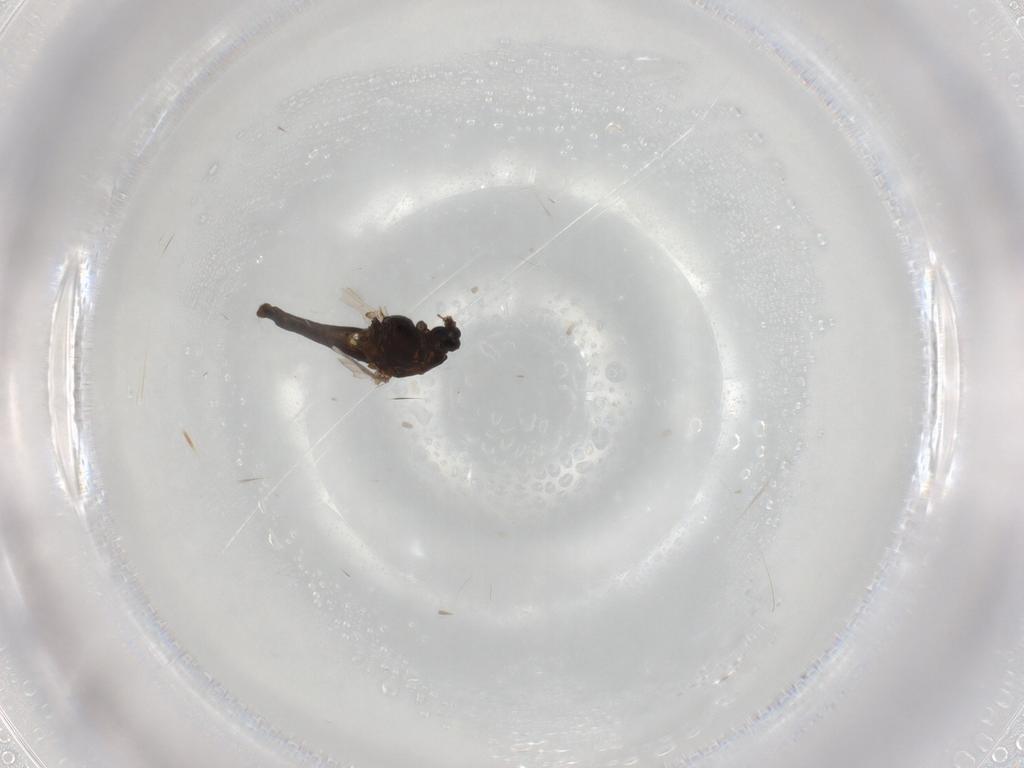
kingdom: Animalia
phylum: Arthropoda
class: Insecta
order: Diptera
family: Chironomidae
